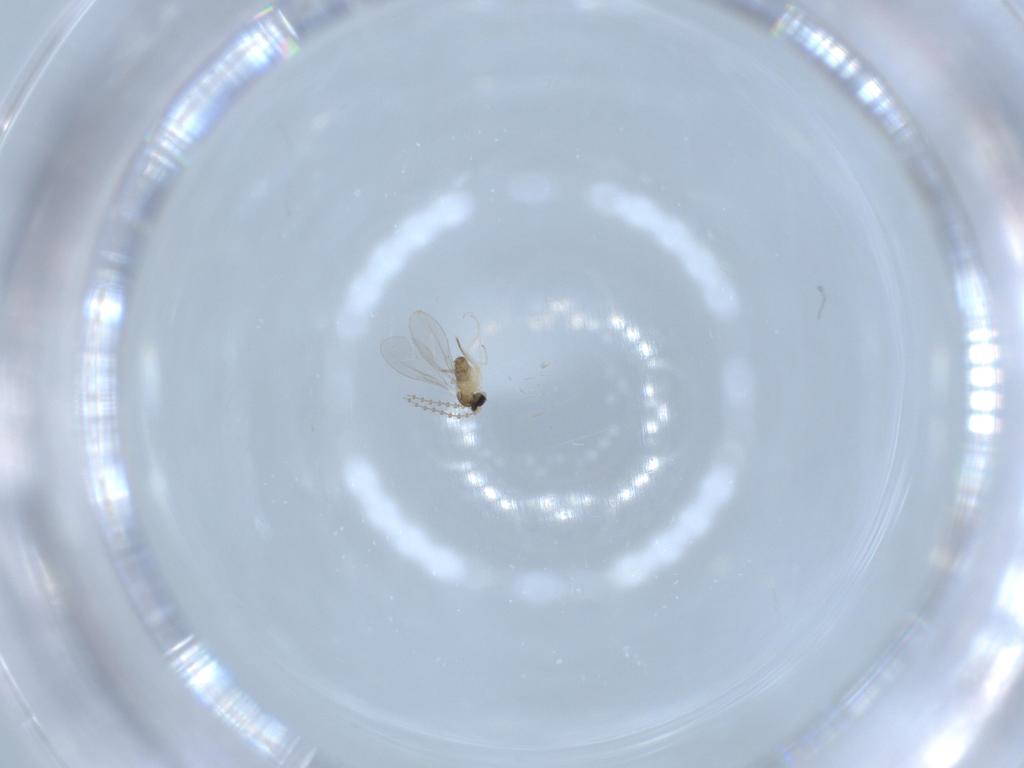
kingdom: Animalia
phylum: Arthropoda
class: Insecta
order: Diptera
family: Cecidomyiidae
